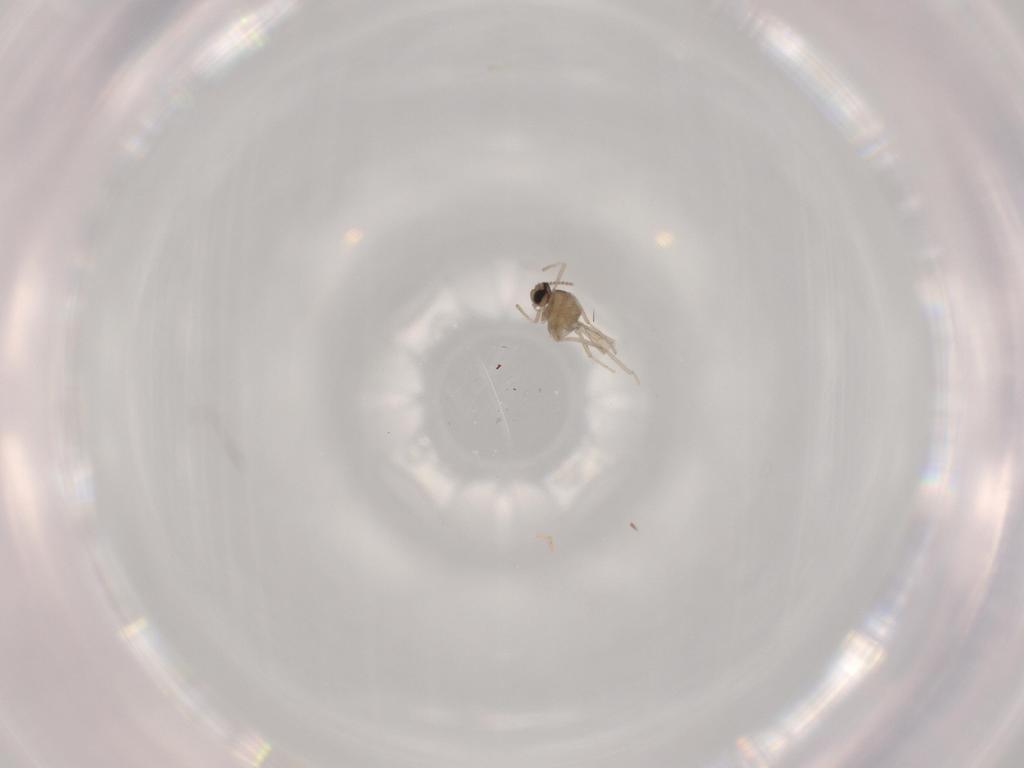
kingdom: Animalia
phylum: Arthropoda
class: Insecta
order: Diptera
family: Cecidomyiidae
